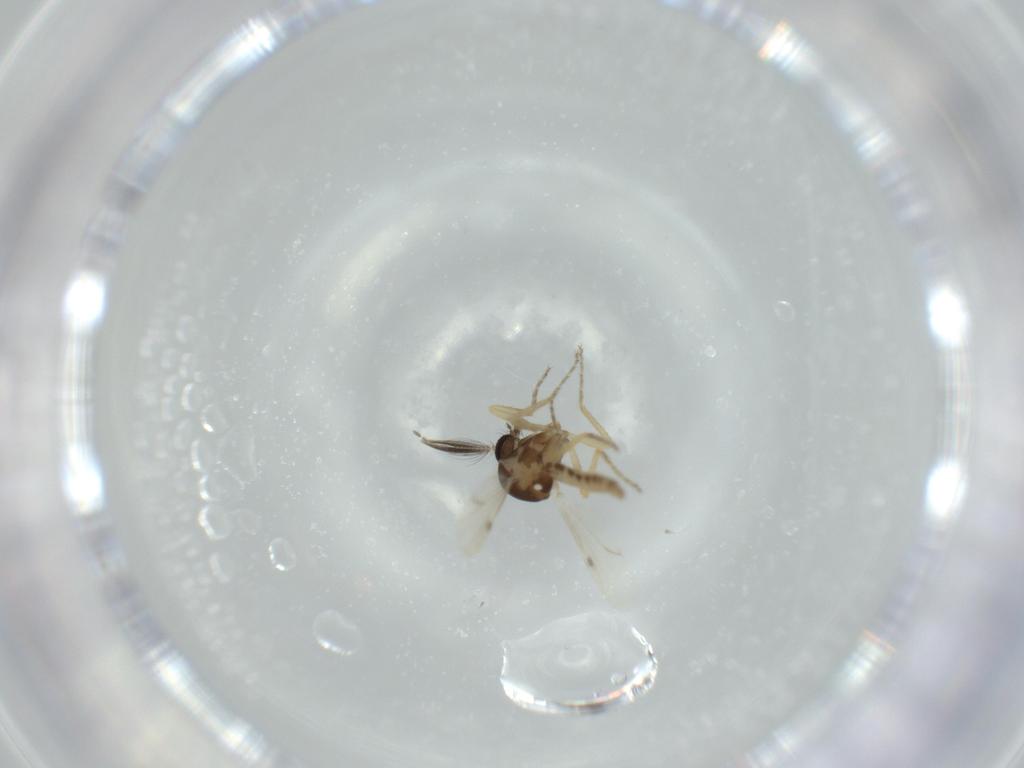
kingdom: Animalia
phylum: Arthropoda
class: Insecta
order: Diptera
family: Ceratopogonidae
